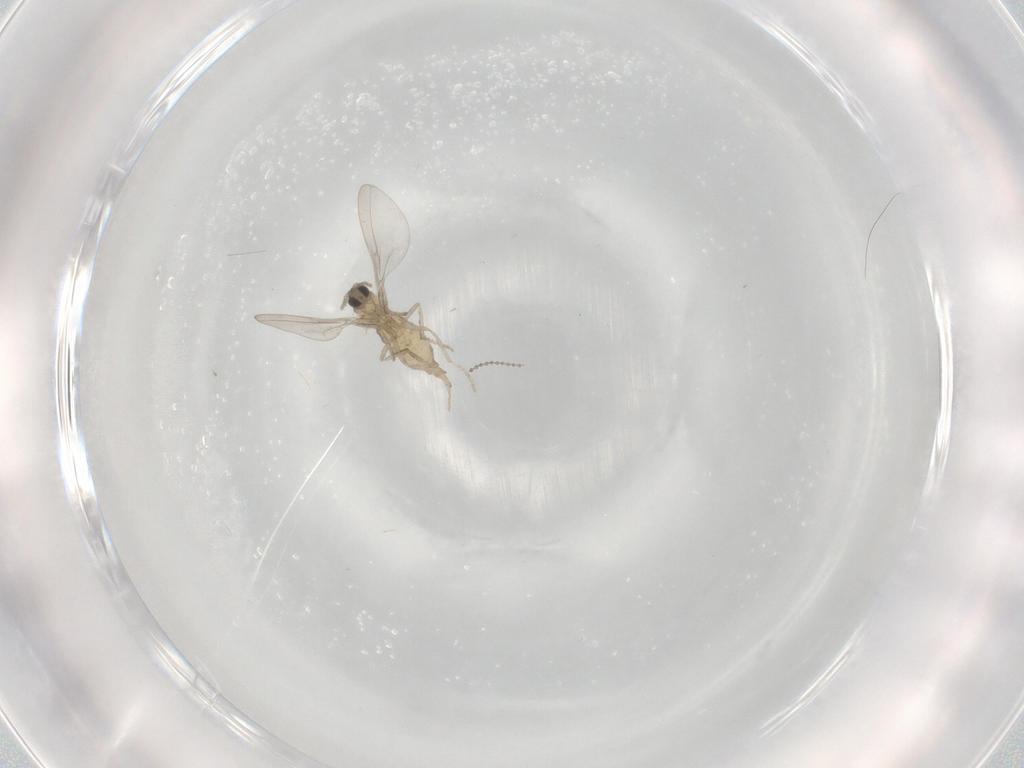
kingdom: Animalia
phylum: Arthropoda
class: Insecta
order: Diptera
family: Cecidomyiidae
